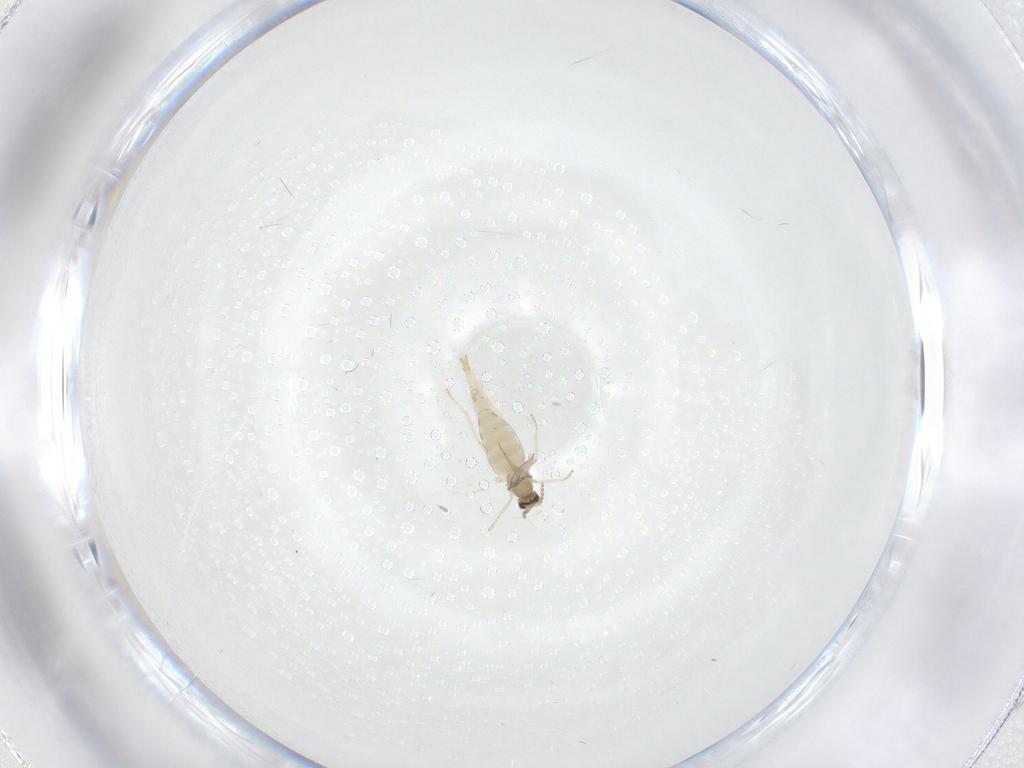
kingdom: Animalia
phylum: Arthropoda
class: Insecta
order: Diptera
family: Cecidomyiidae
